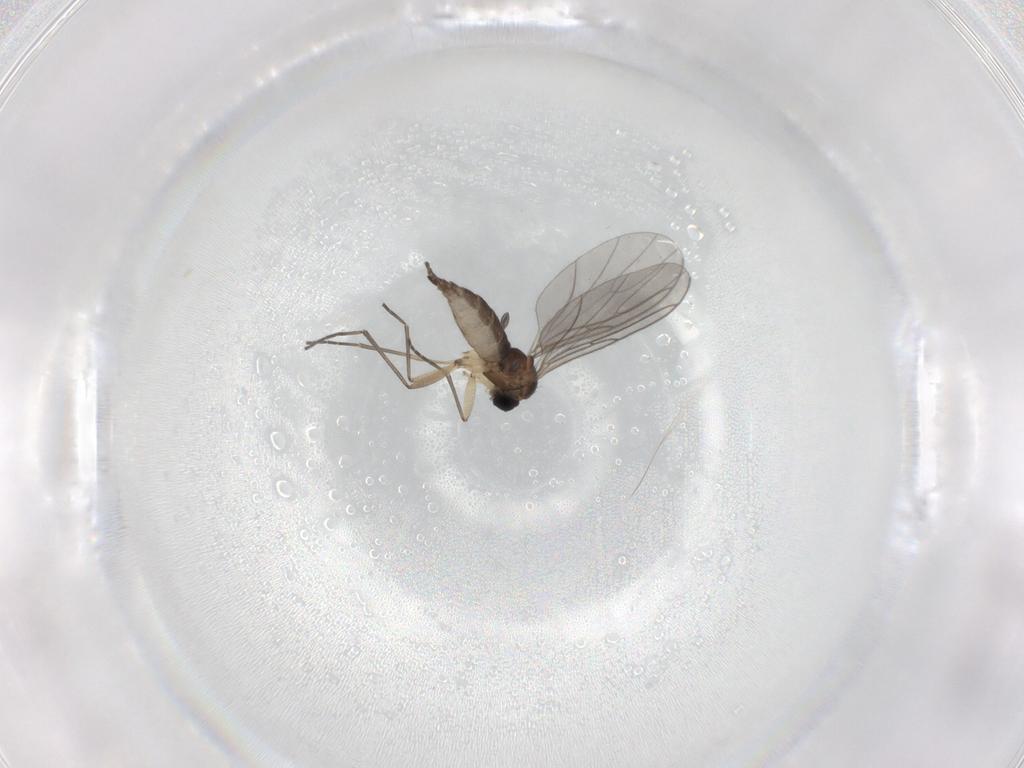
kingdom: Animalia
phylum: Arthropoda
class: Insecta
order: Diptera
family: Sciaridae
